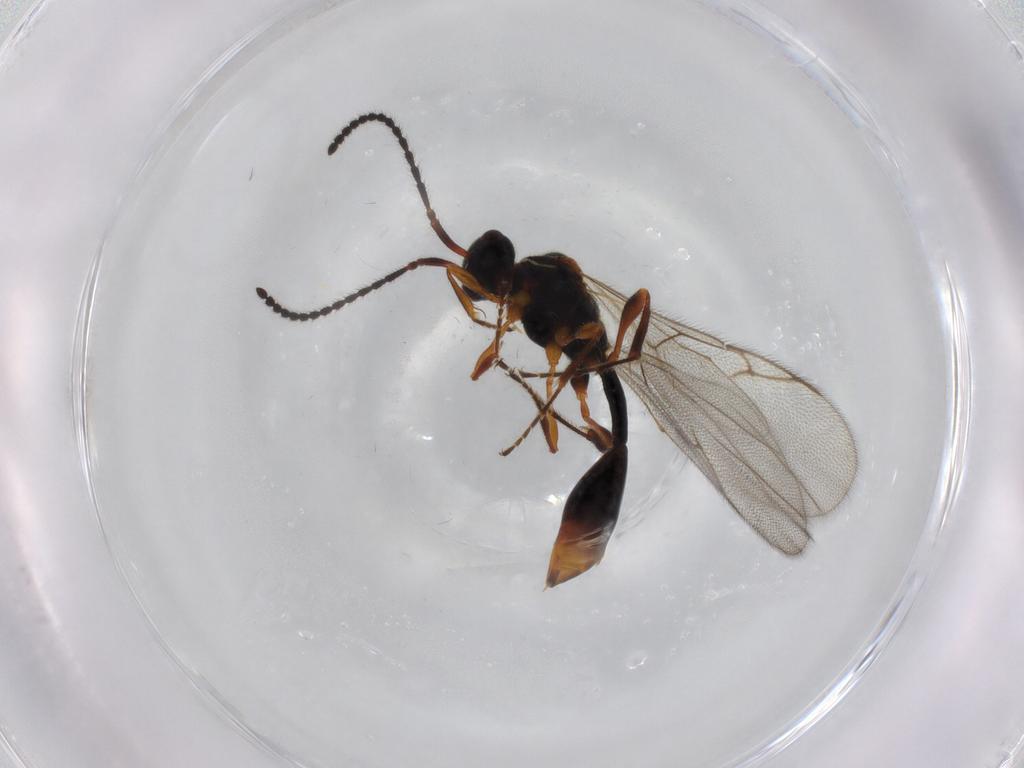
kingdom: Animalia
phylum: Arthropoda
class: Insecta
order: Hymenoptera
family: Diapriidae
